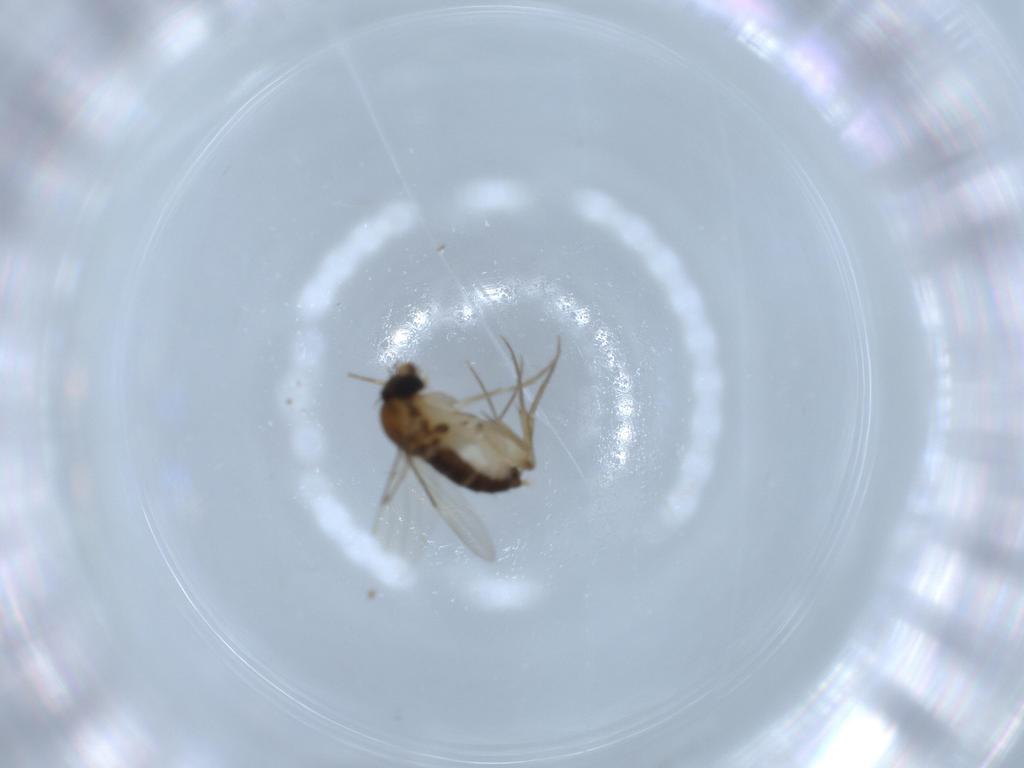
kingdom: Animalia
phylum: Arthropoda
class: Insecta
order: Diptera
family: Phoridae
